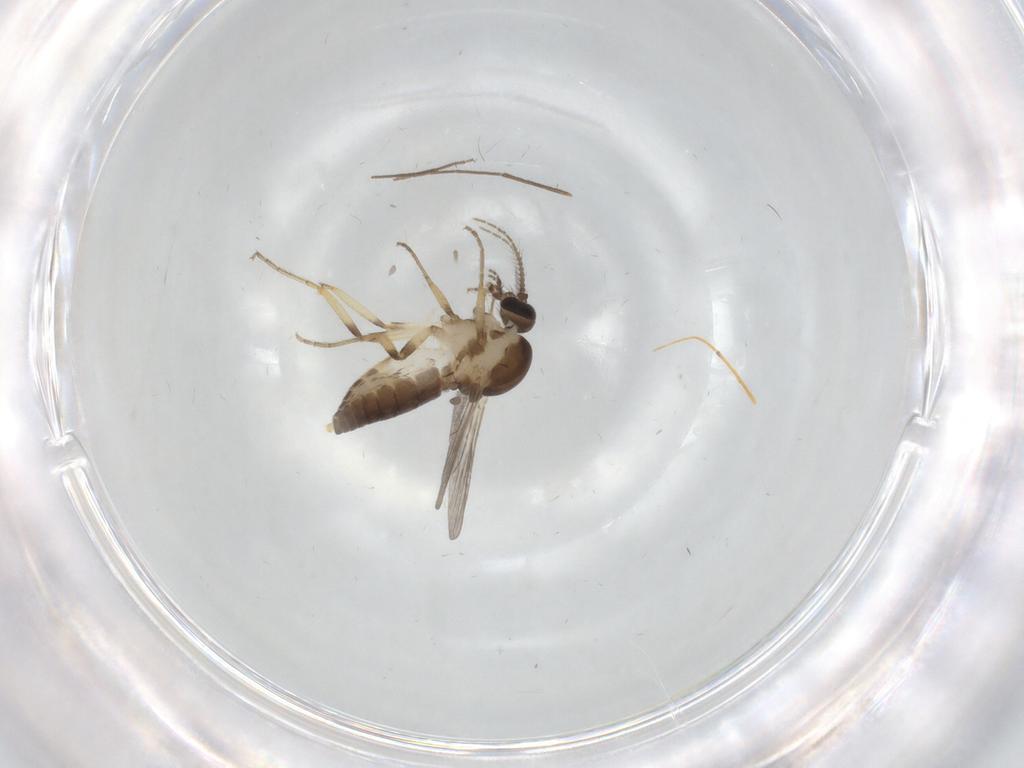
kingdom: Animalia
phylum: Arthropoda
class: Insecta
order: Diptera
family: Ceratopogonidae
